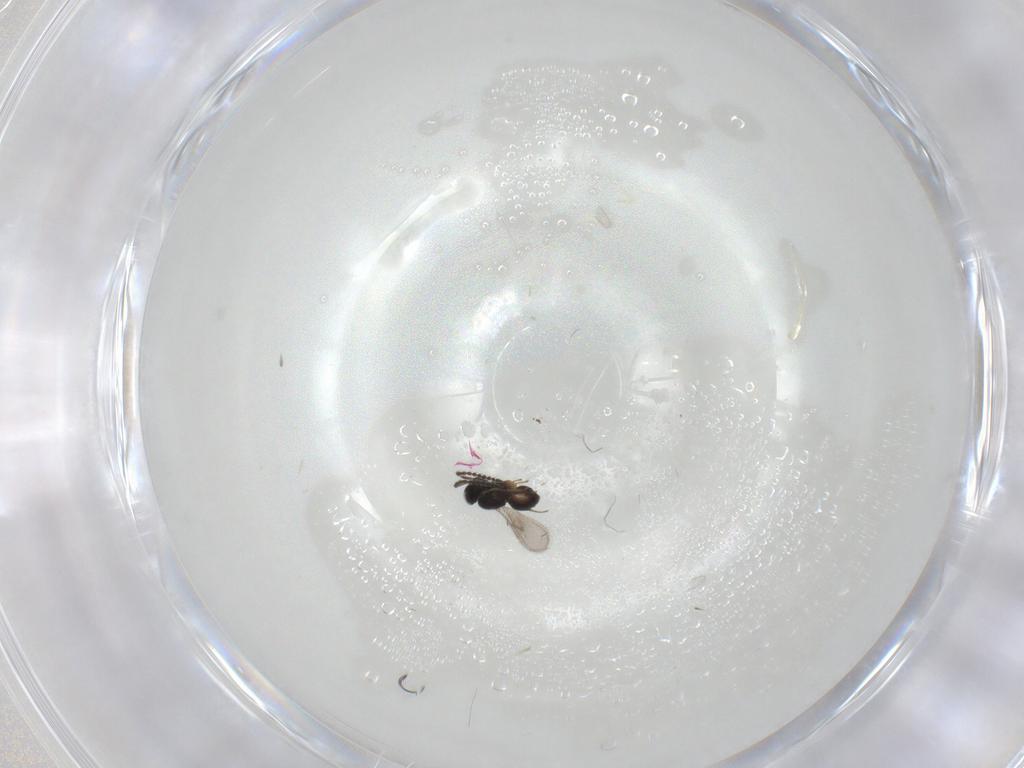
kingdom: Animalia
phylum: Arthropoda
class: Insecta
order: Hymenoptera
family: Scelionidae
